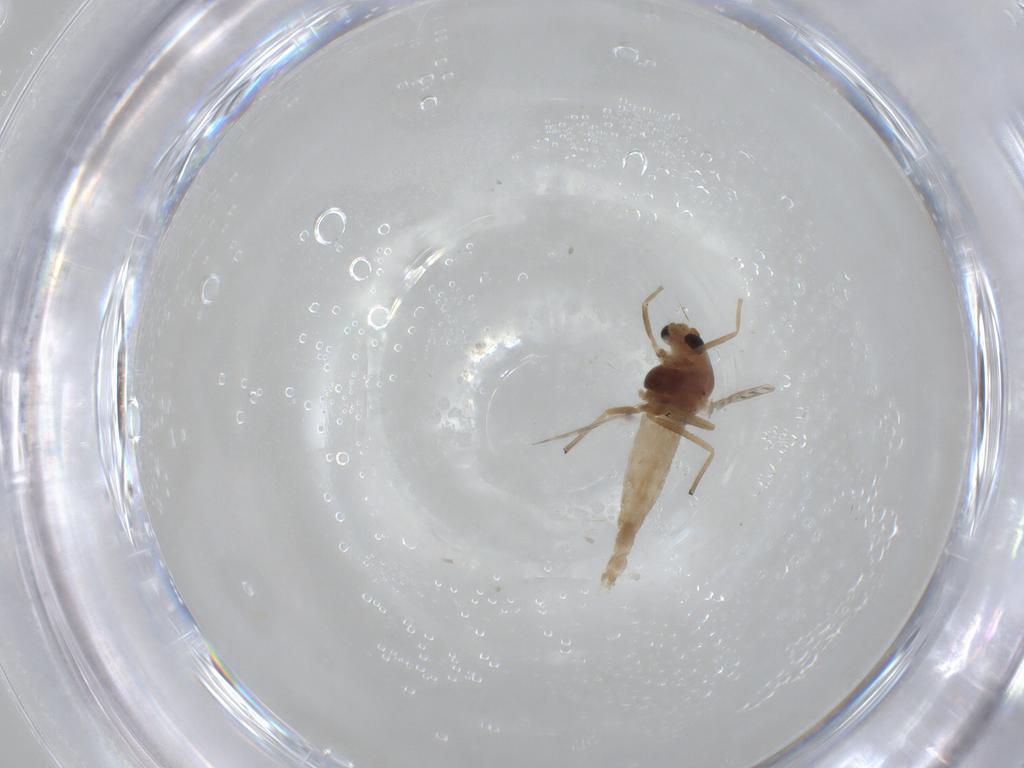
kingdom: Animalia
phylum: Arthropoda
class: Insecta
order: Diptera
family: Chironomidae
